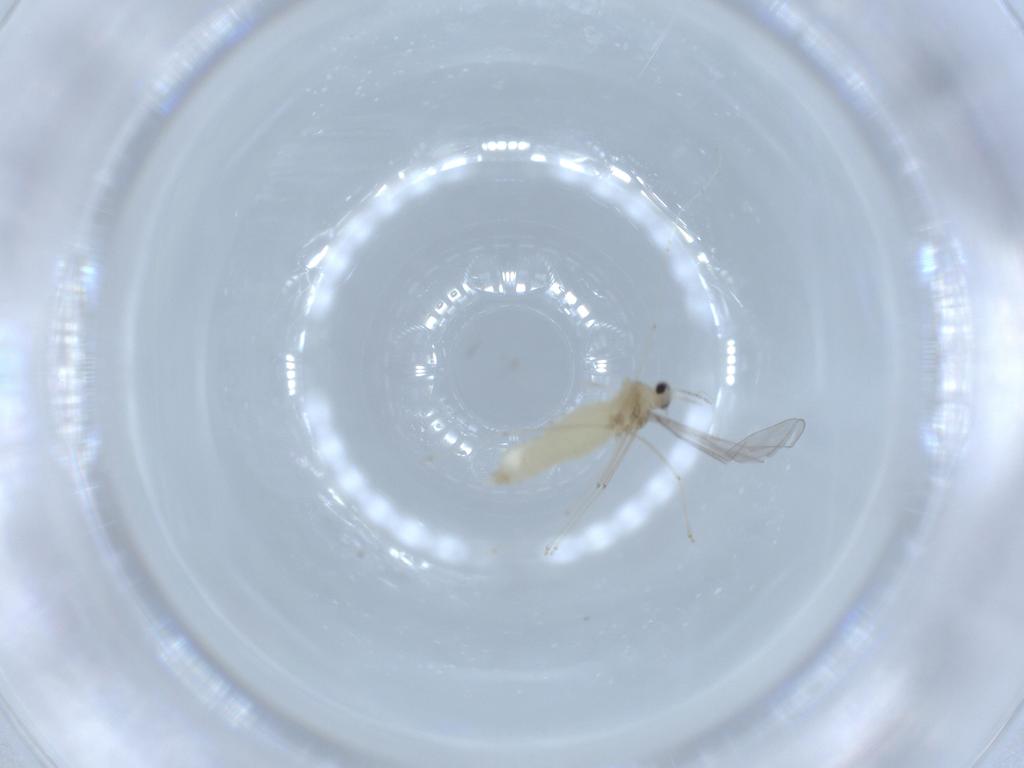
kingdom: Animalia
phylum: Arthropoda
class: Insecta
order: Diptera
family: Cecidomyiidae
